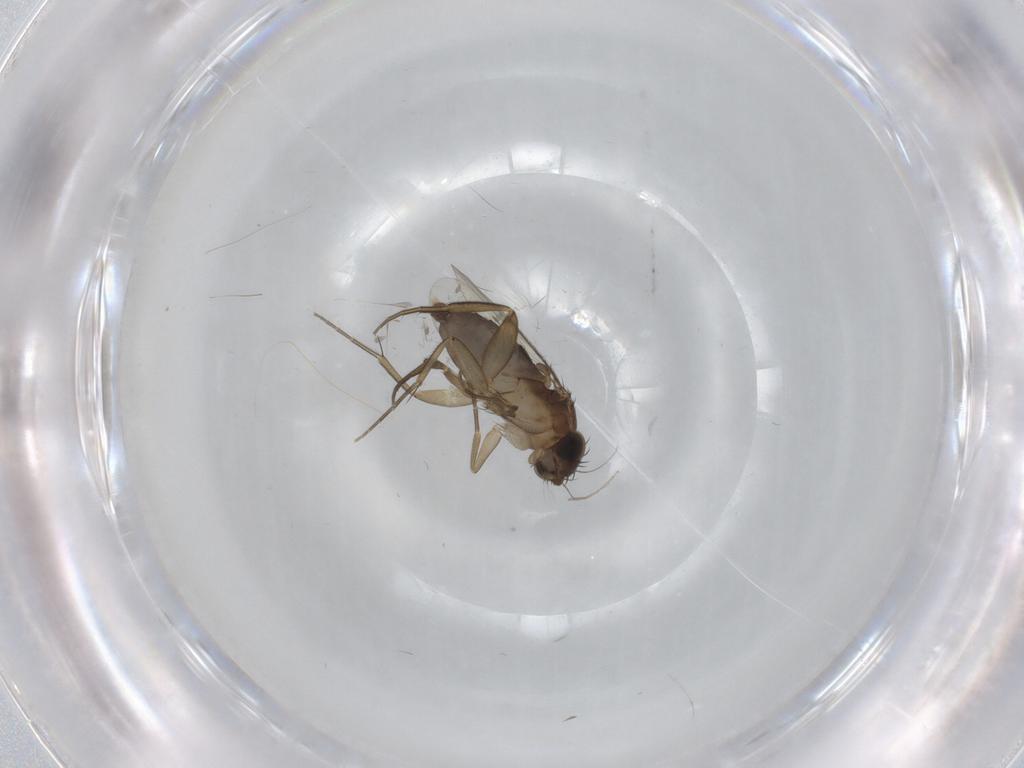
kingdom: Animalia
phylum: Arthropoda
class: Insecta
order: Diptera
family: Phoridae
